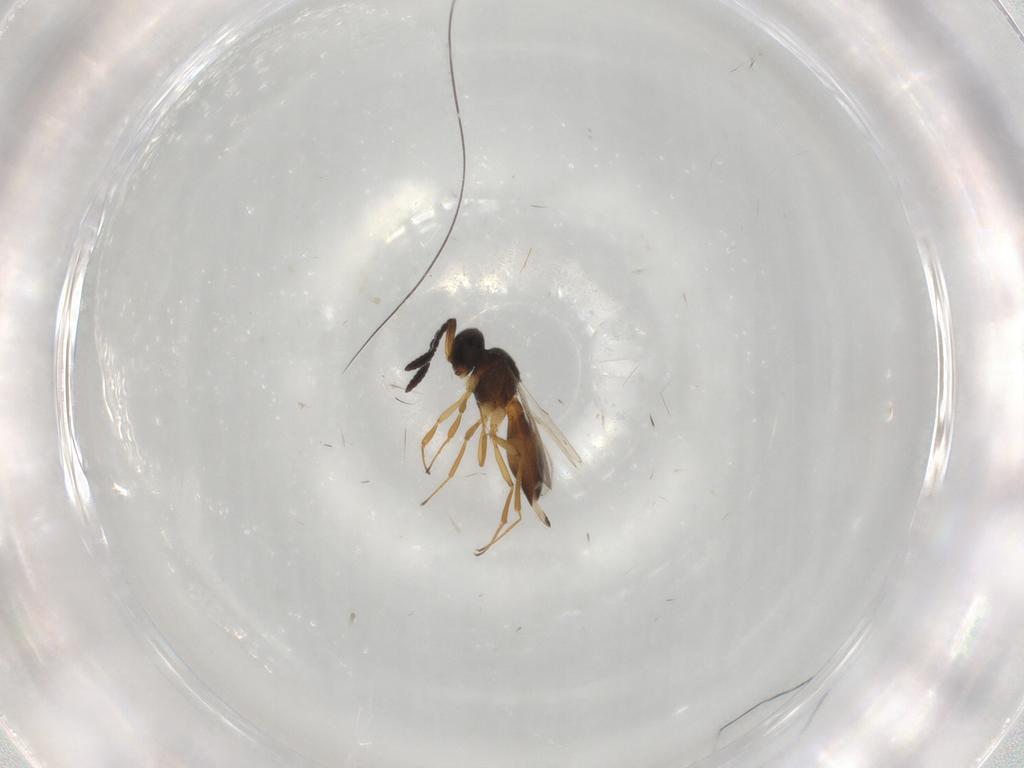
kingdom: Animalia
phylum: Arthropoda
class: Insecta
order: Hymenoptera
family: Scelionidae
